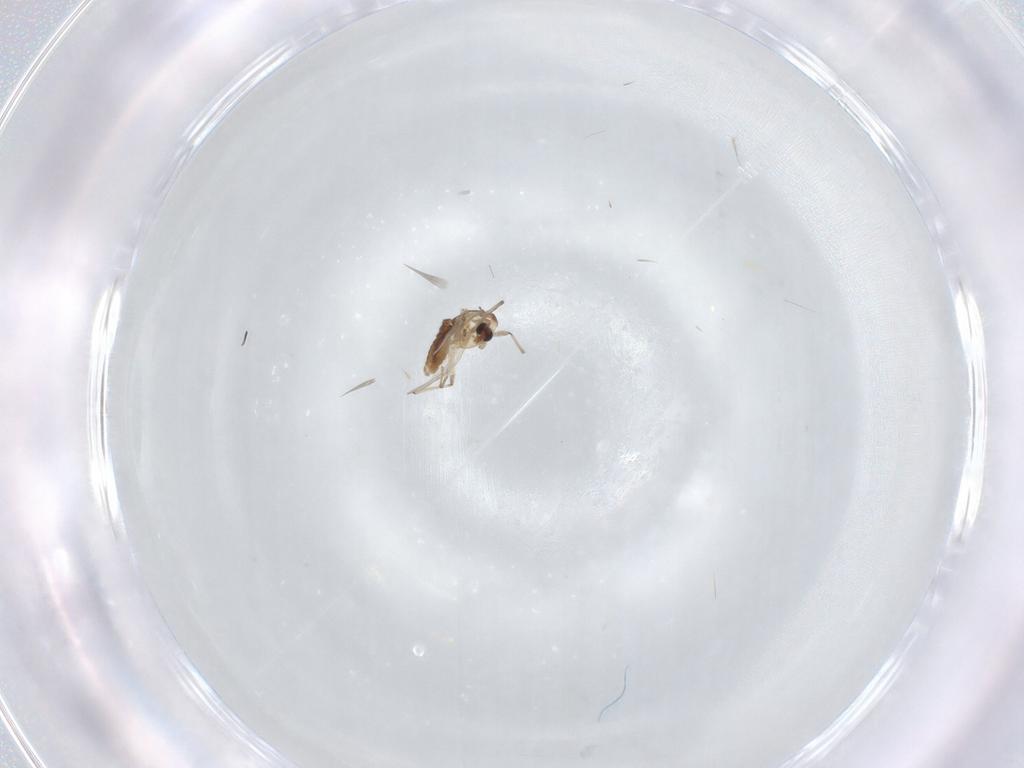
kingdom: Animalia
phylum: Arthropoda
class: Insecta
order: Diptera
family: Chironomidae
